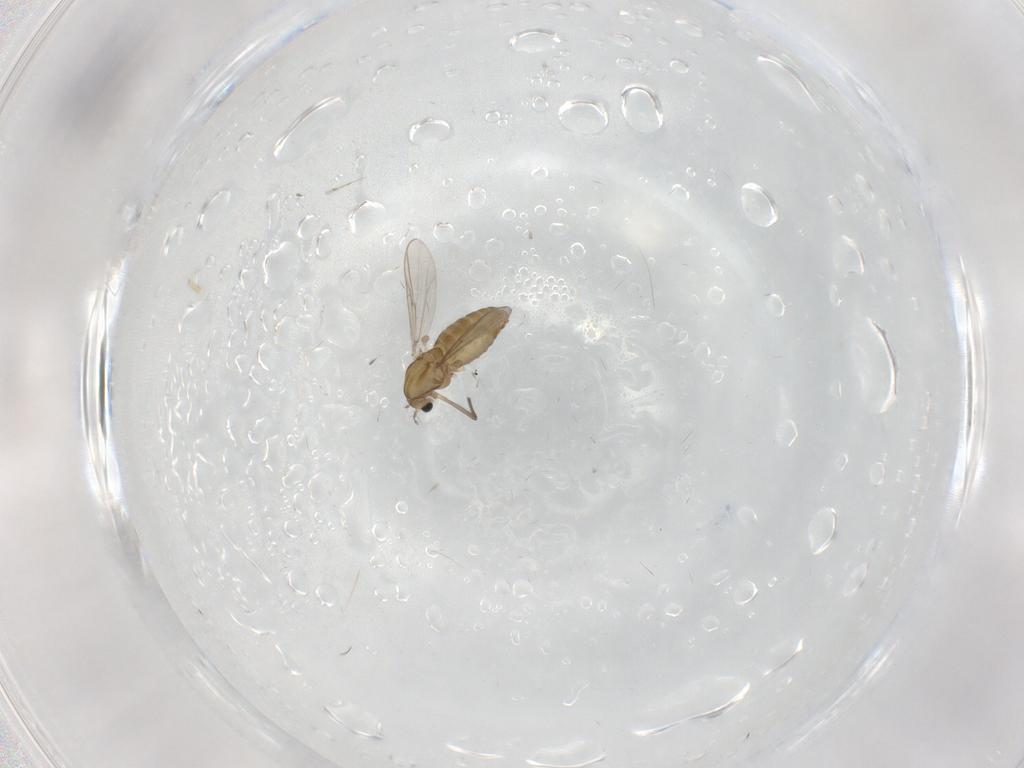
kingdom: Animalia
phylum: Arthropoda
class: Insecta
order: Diptera
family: Chironomidae
